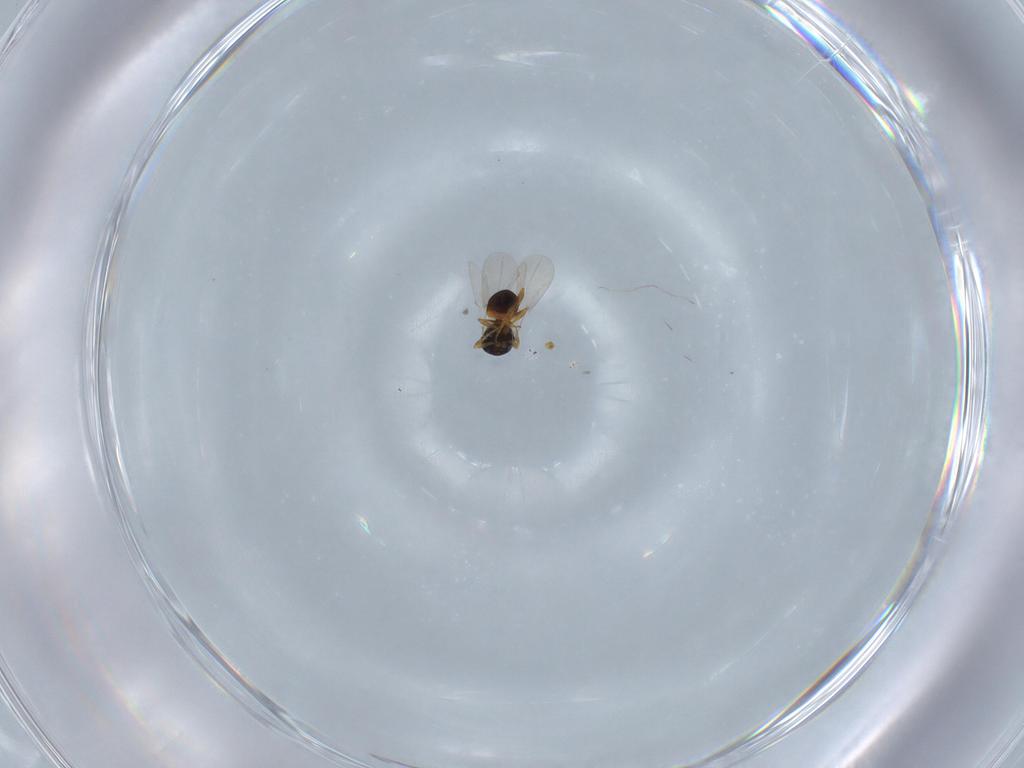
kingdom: Animalia
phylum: Arthropoda
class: Insecta
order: Hymenoptera
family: Platygastridae
